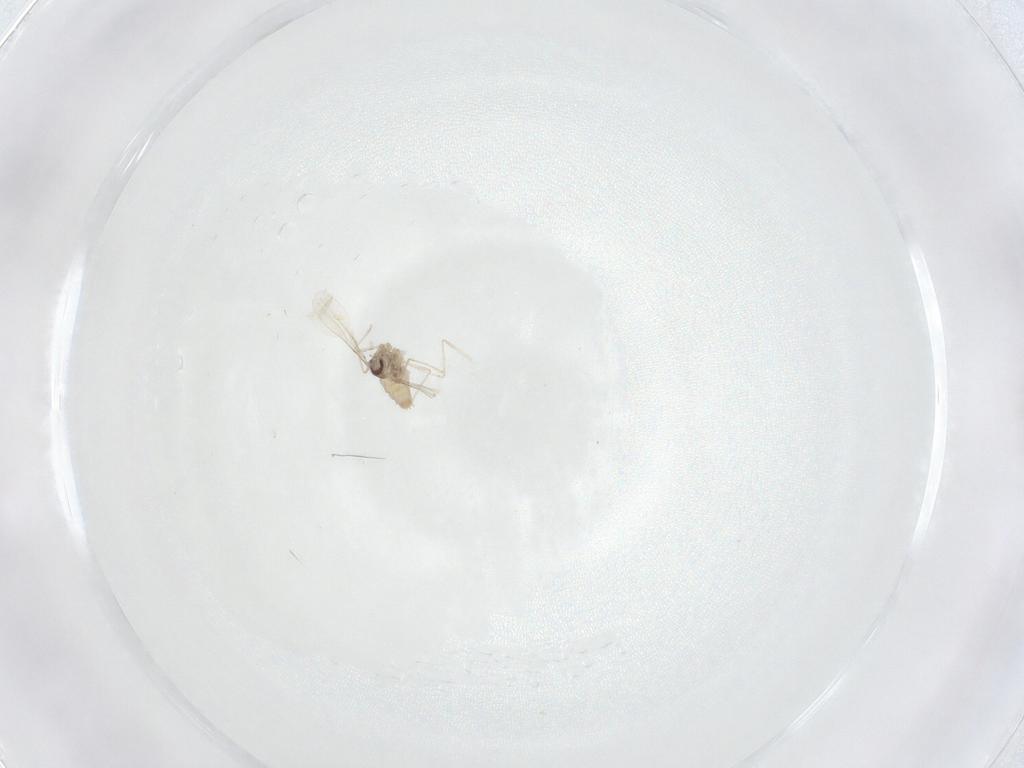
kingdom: Animalia
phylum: Arthropoda
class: Insecta
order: Diptera
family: Cecidomyiidae
